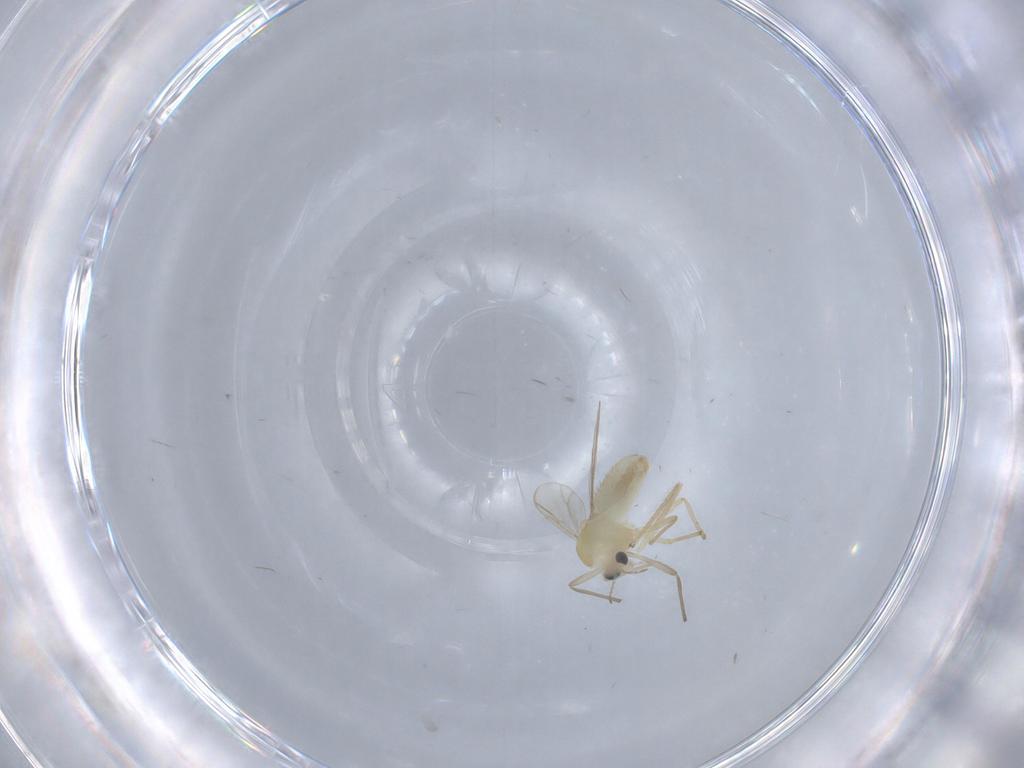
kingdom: Animalia
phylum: Arthropoda
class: Insecta
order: Diptera
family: Chironomidae
